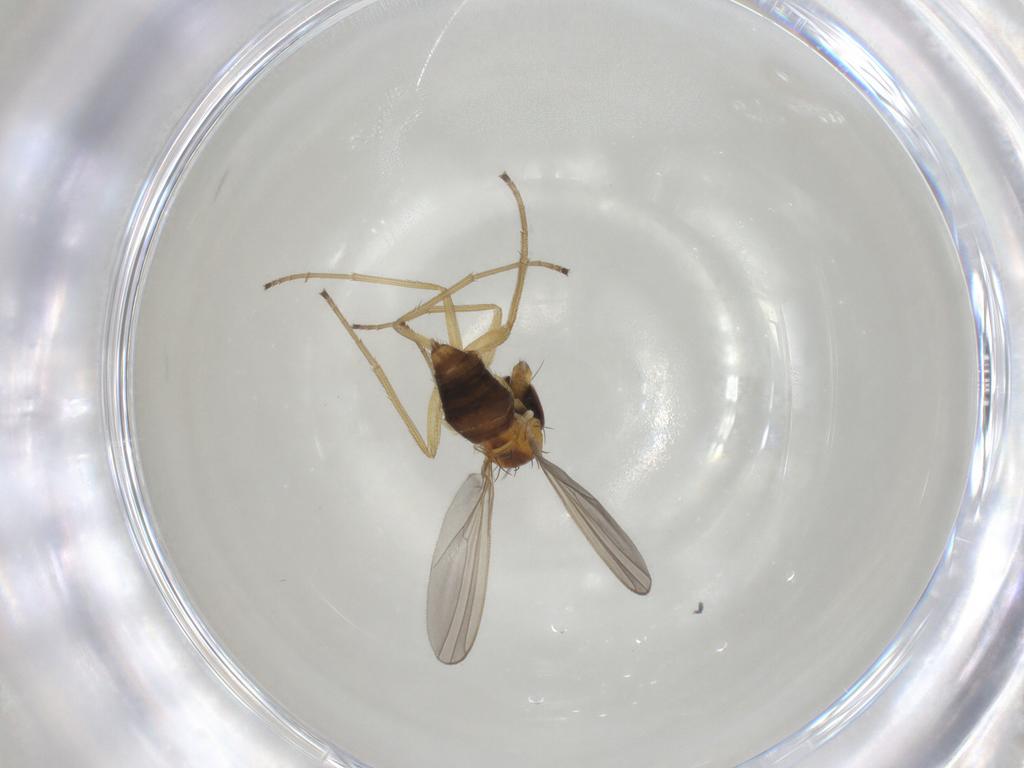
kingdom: Animalia
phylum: Arthropoda
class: Insecta
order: Diptera
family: Dolichopodidae
